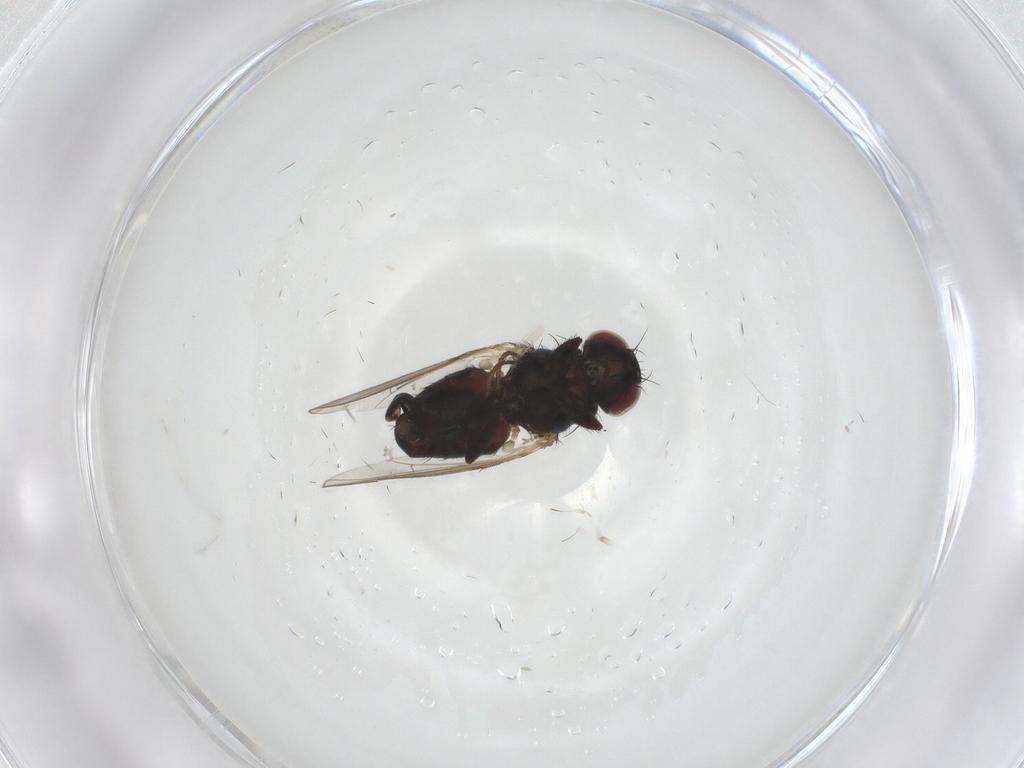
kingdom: Animalia
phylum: Arthropoda
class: Insecta
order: Diptera
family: Carnidae
